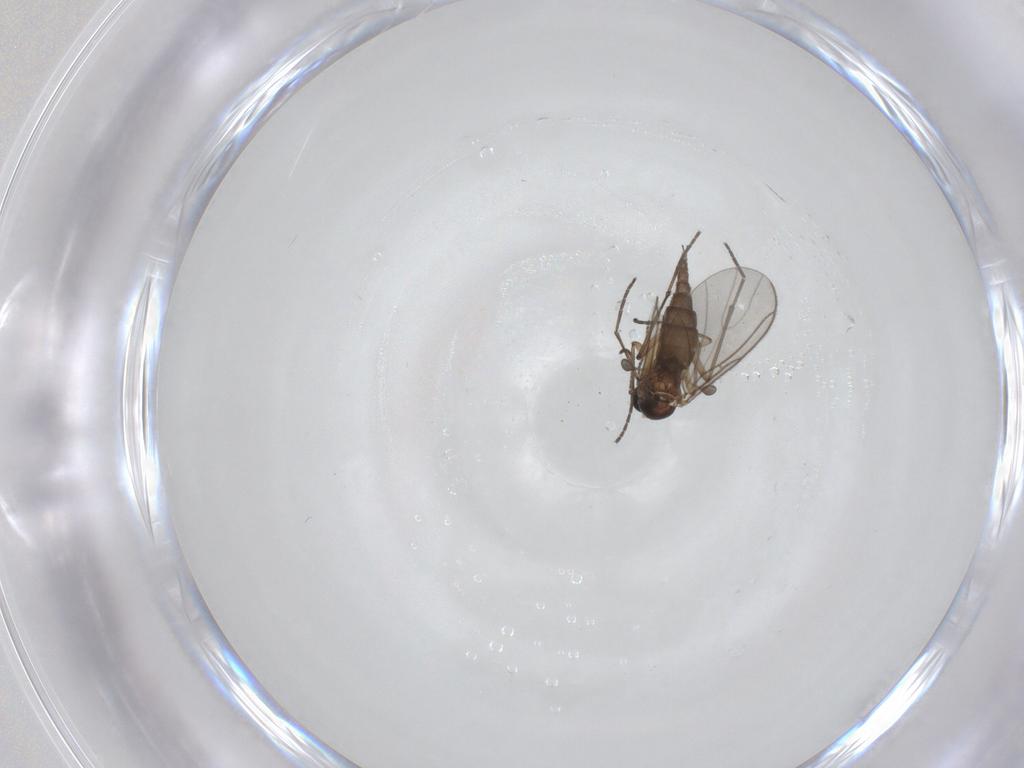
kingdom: Animalia
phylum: Arthropoda
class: Insecta
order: Diptera
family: Sciaridae
